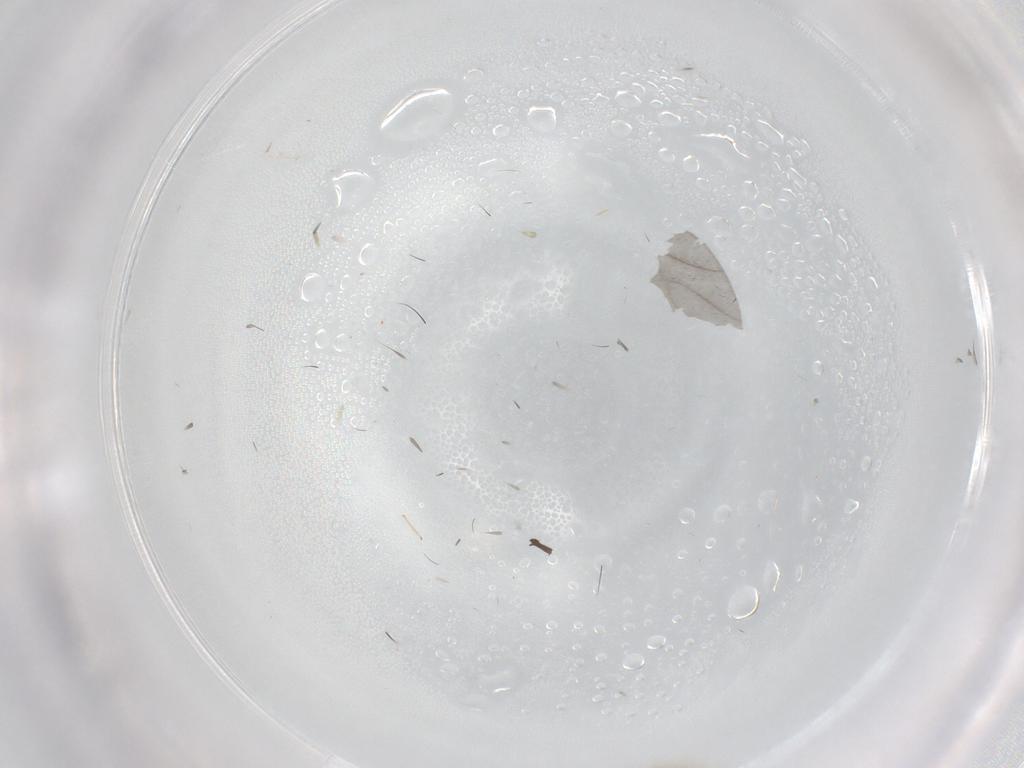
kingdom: Animalia
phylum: Arthropoda
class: Insecta
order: Diptera
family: Chironomidae
